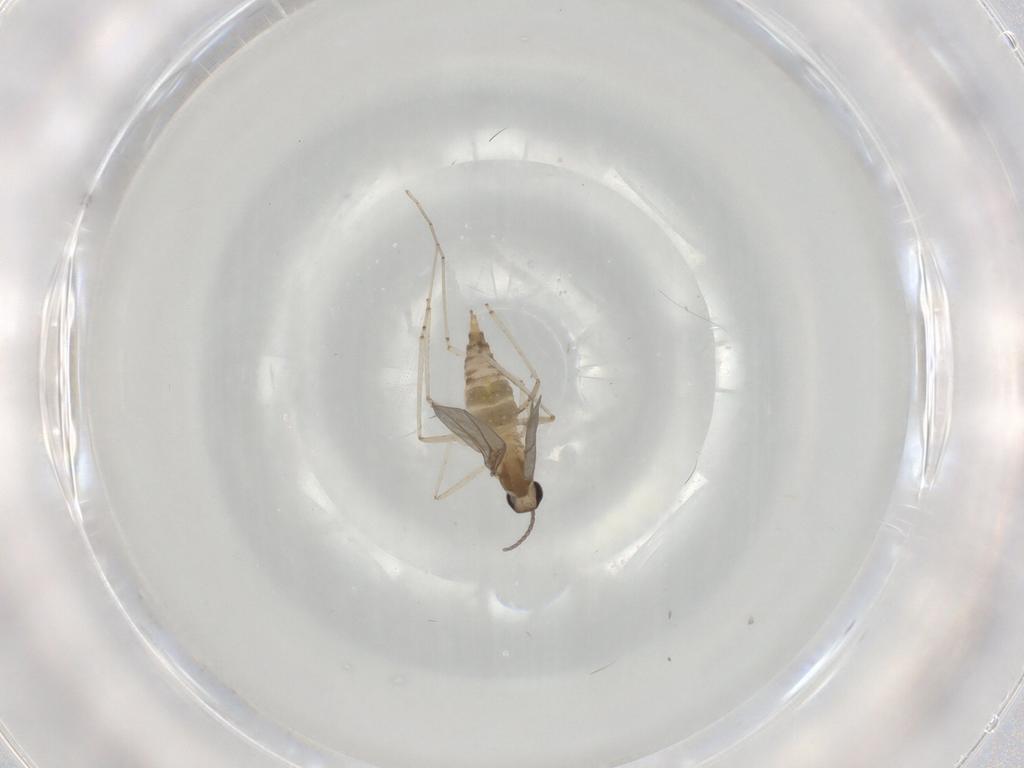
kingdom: Animalia
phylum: Arthropoda
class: Insecta
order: Diptera
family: Cecidomyiidae
